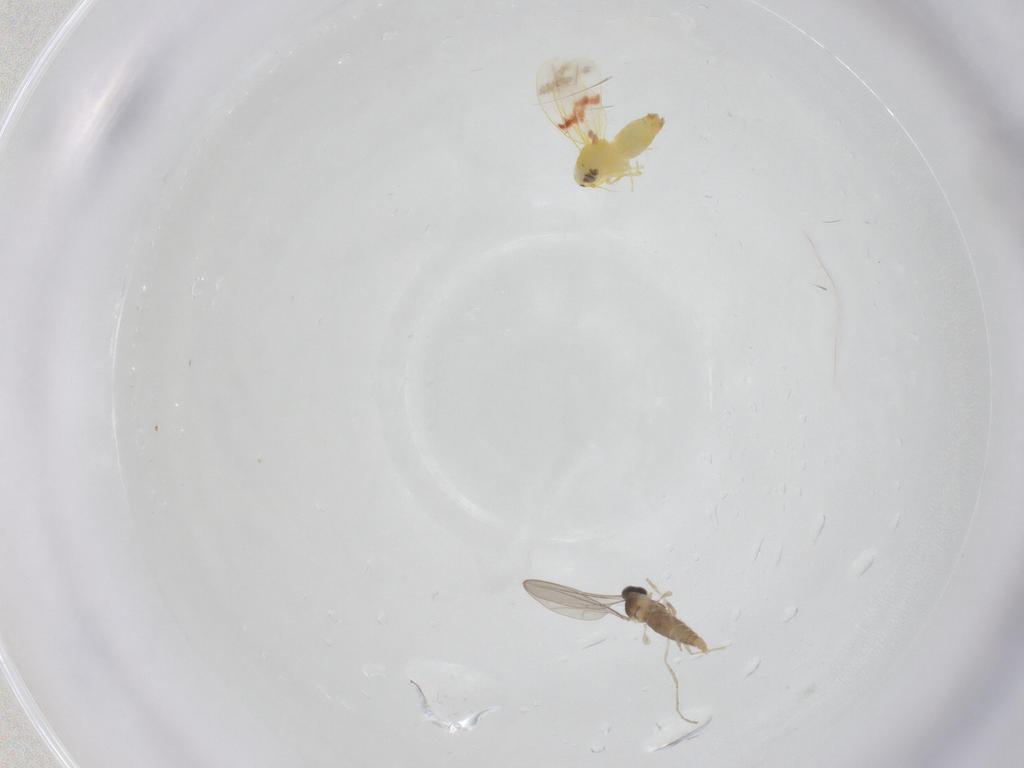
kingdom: Animalia
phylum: Arthropoda
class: Insecta
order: Diptera
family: Cecidomyiidae
